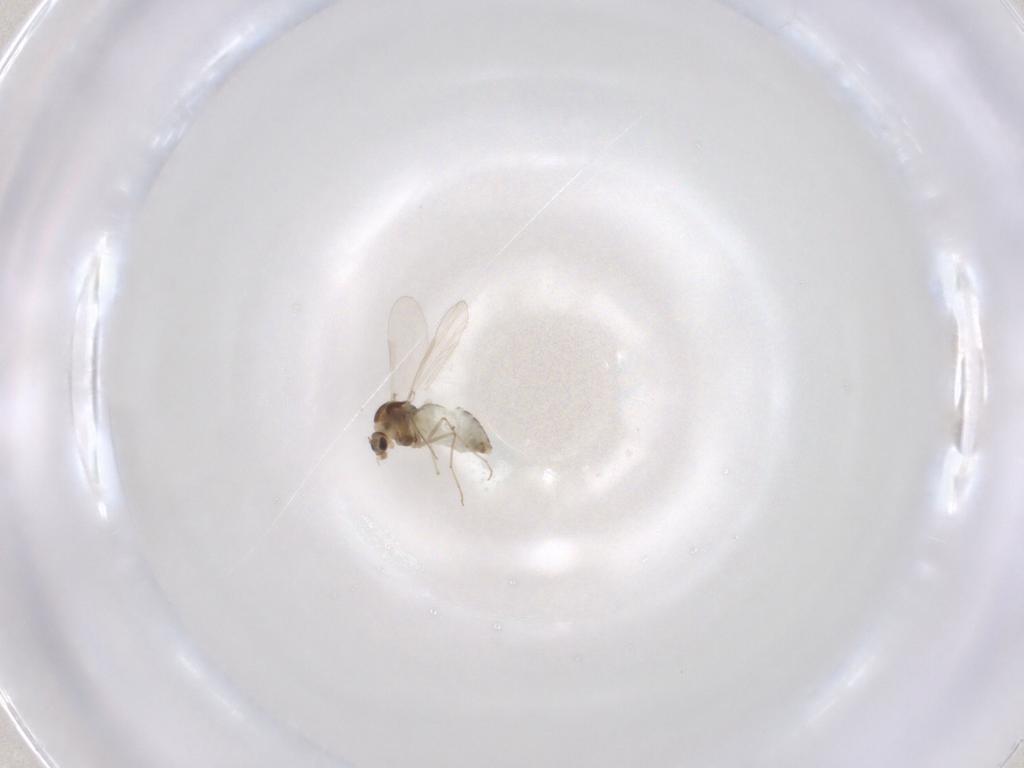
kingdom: Animalia
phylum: Arthropoda
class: Insecta
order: Diptera
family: Chironomidae
